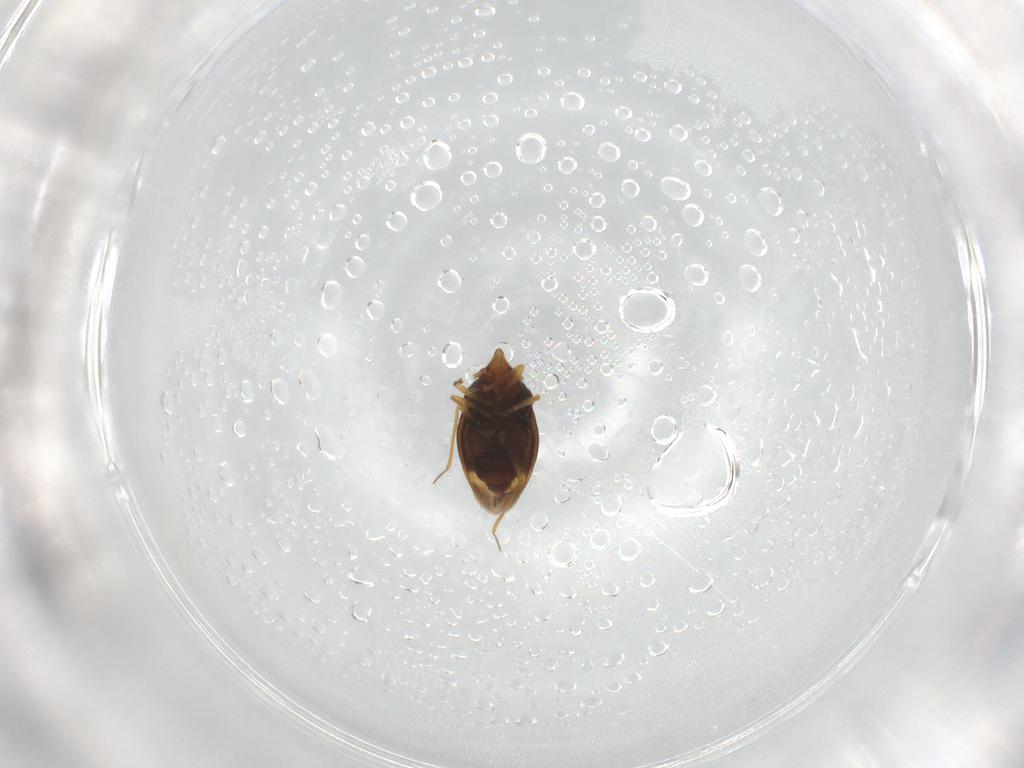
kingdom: Animalia
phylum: Arthropoda
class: Insecta
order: Hemiptera
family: Schizopteridae
